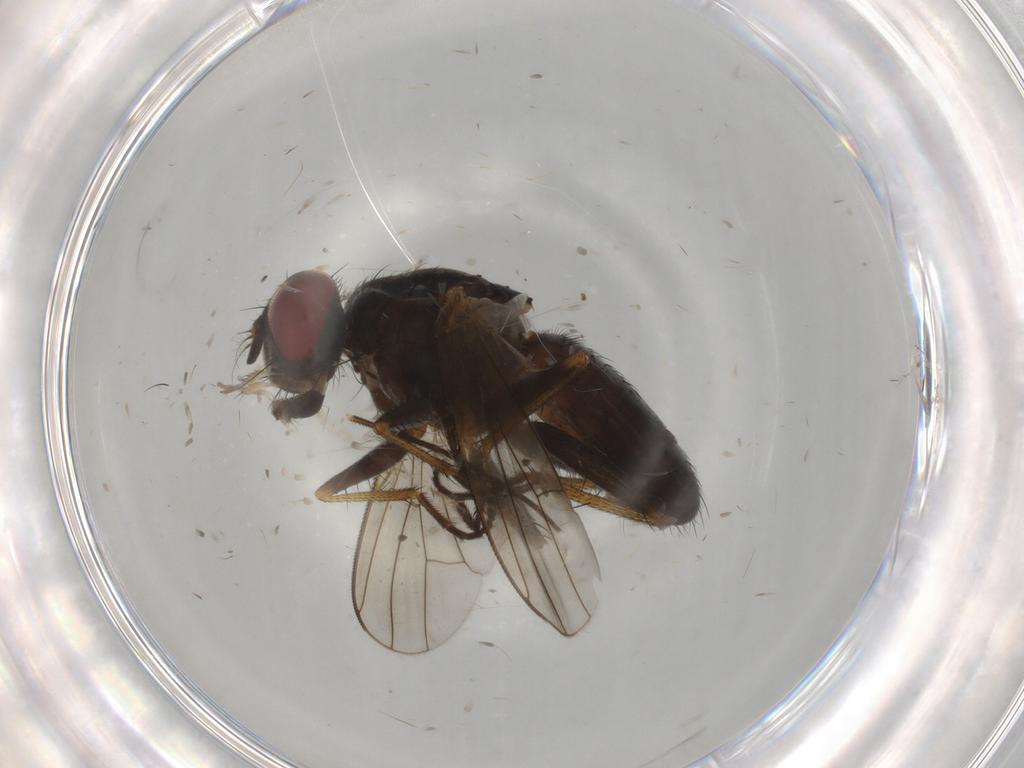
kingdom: Animalia
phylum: Arthropoda
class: Insecta
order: Diptera
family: Muscidae
